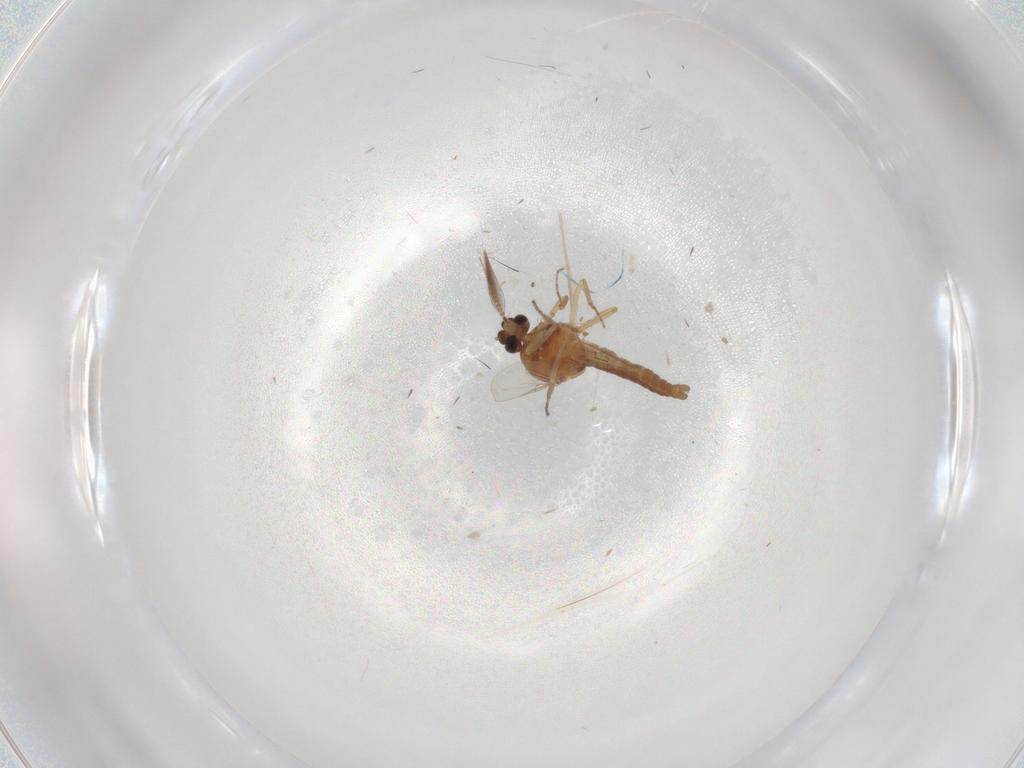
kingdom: Animalia
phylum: Arthropoda
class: Insecta
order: Diptera
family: Ceratopogonidae
